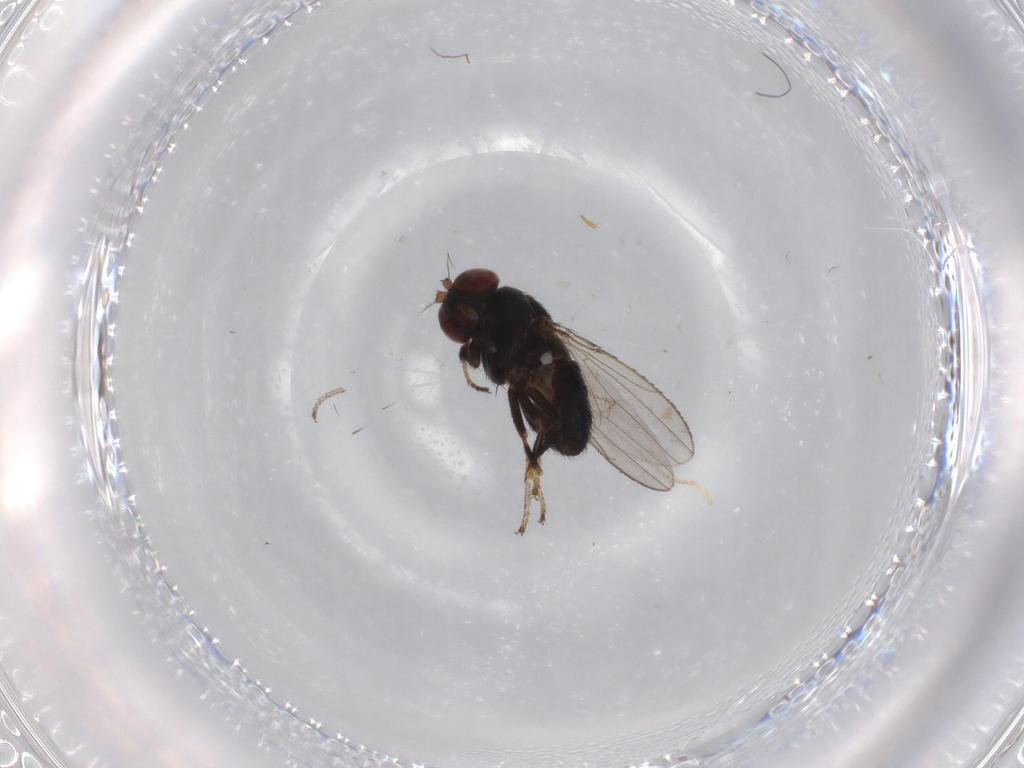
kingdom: Animalia
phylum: Arthropoda
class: Insecta
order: Diptera
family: Ephydridae
